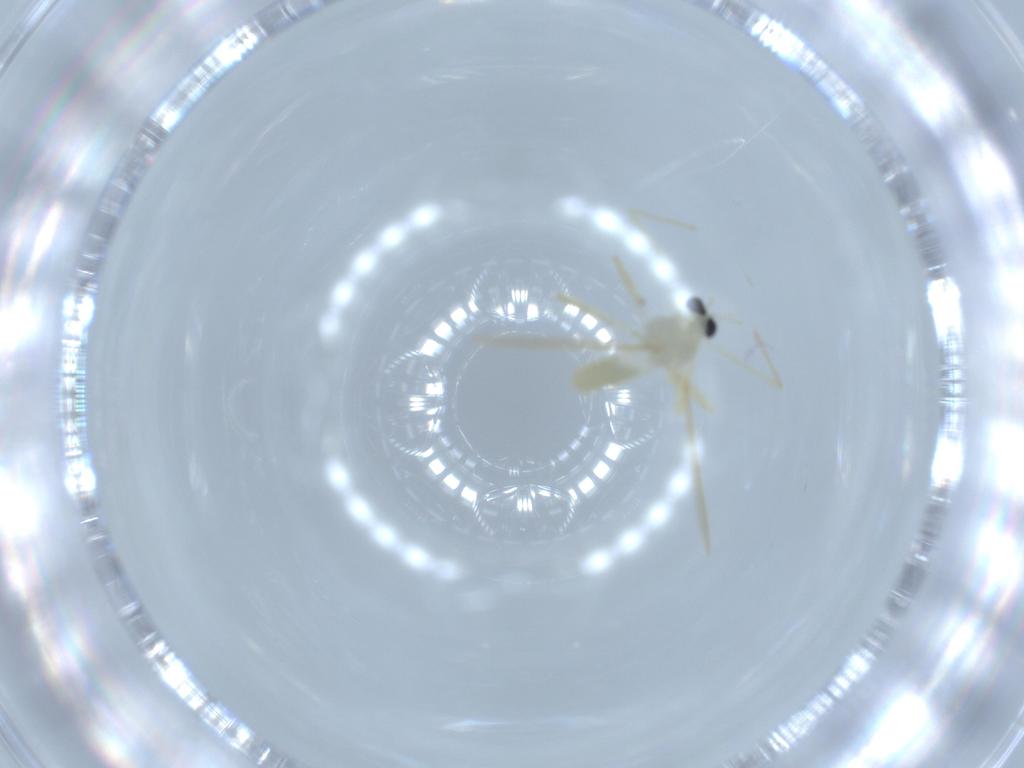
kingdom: Animalia
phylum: Arthropoda
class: Insecta
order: Diptera
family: Chironomidae
